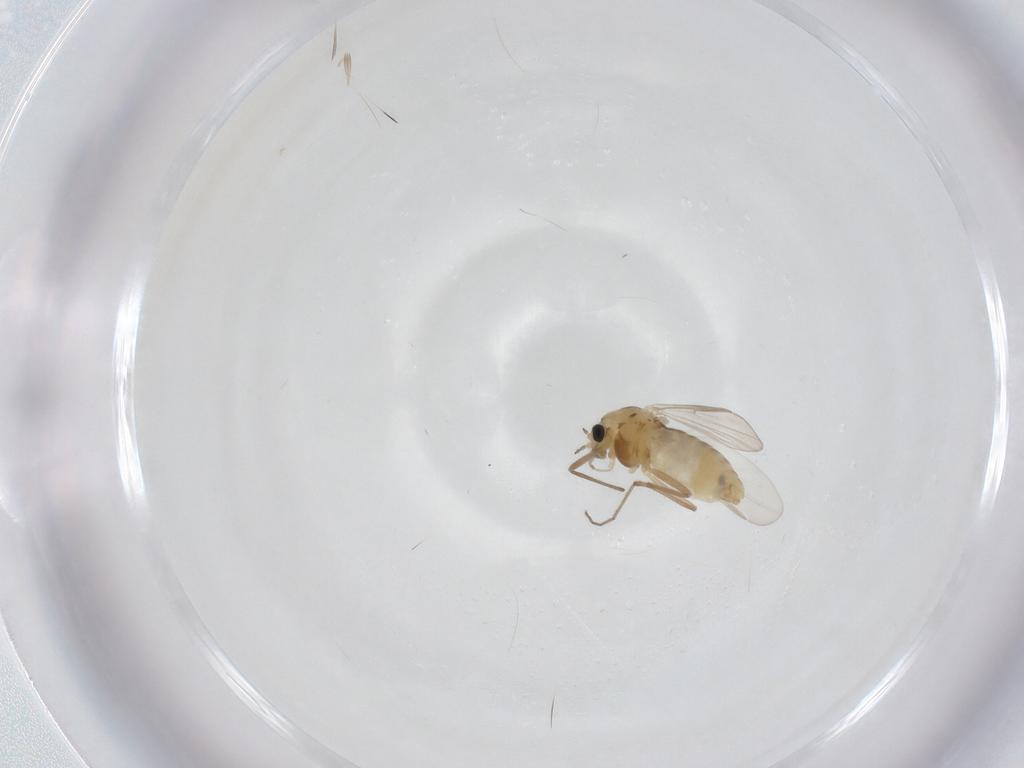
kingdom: Animalia
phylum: Arthropoda
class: Insecta
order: Diptera
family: Chironomidae
